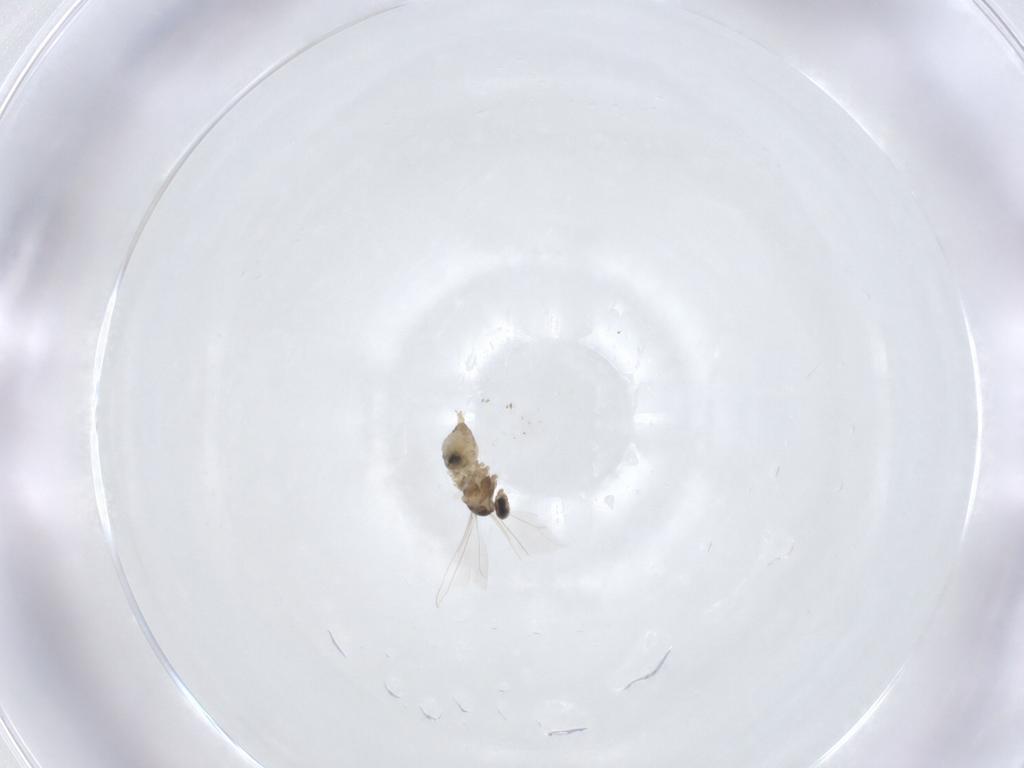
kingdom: Animalia
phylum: Arthropoda
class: Insecta
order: Diptera
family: Cecidomyiidae
